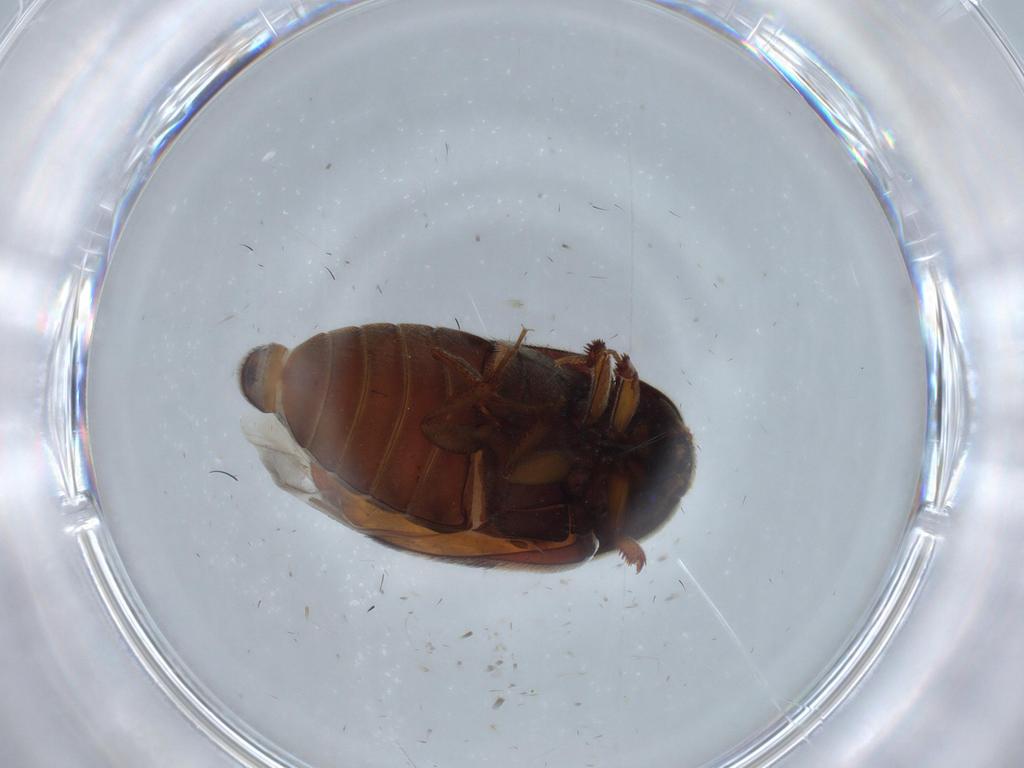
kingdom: Animalia
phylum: Arthropoda
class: Insecta
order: Coleoptera
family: Dermestidae
